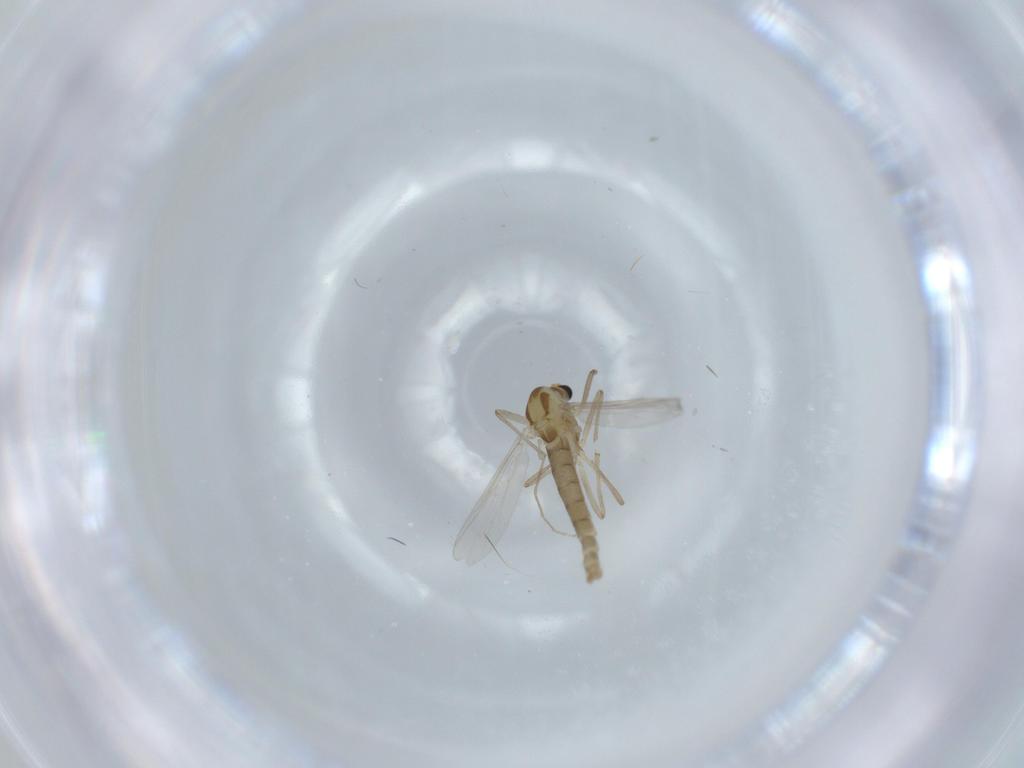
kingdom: Animalia
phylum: Arthropoda
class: Insecta
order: Diptera
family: Chironomidae
